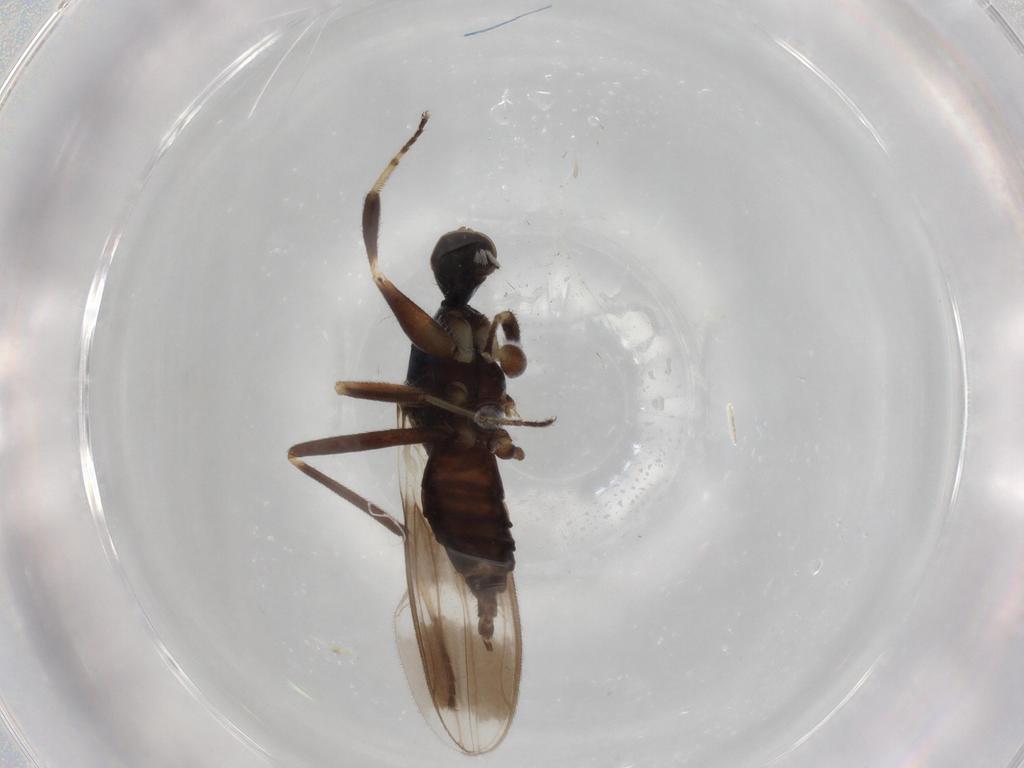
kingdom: Animalia
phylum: Arthropoda
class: Insecta
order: Diptera
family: Hybotidae
